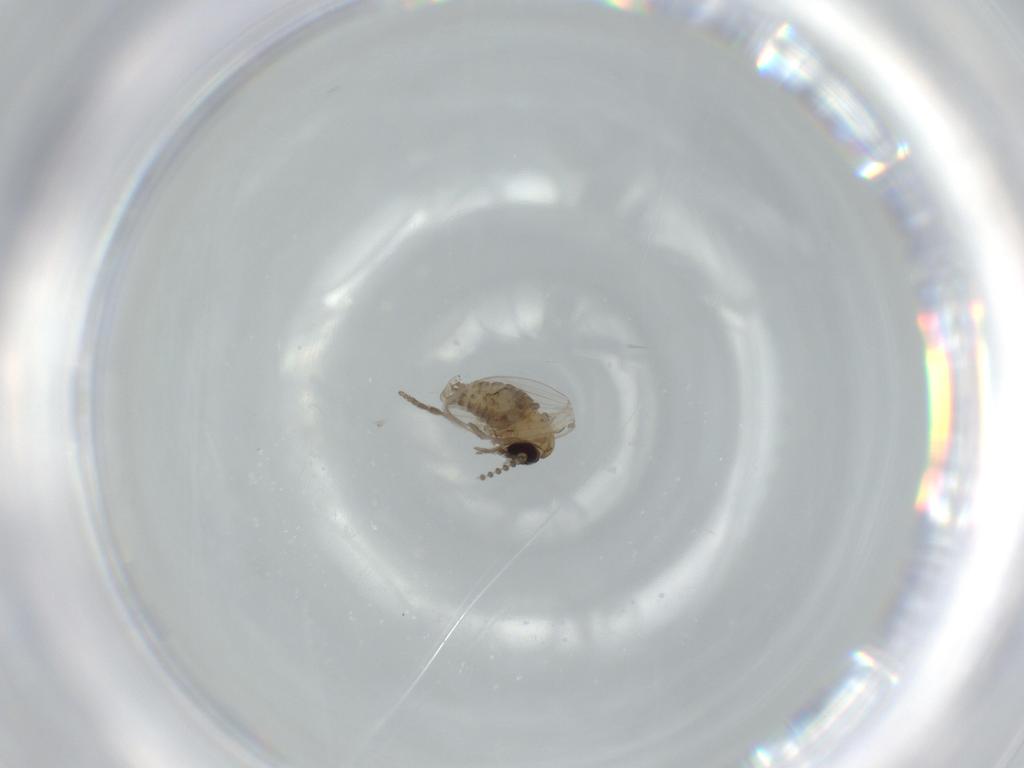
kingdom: Animalia
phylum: Arthropoda
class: Insecta
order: Diptera
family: Psychodidae
